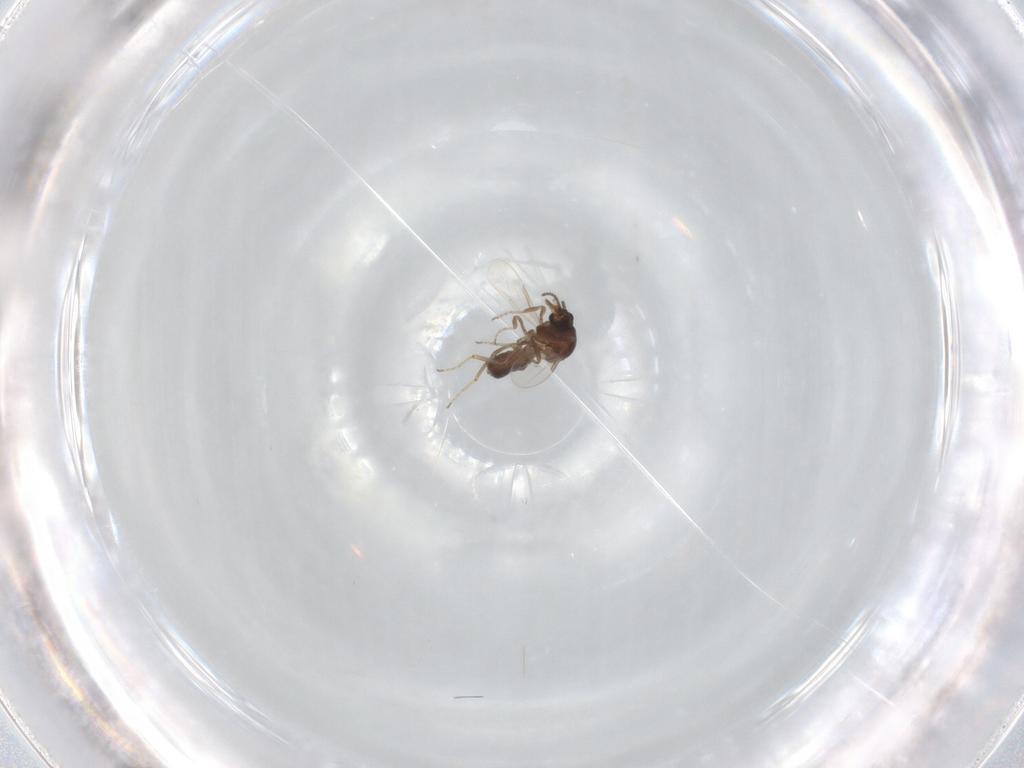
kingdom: Animalia
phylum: Arthropoda
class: Insecta
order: Diptera
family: Ceratopogonidae
